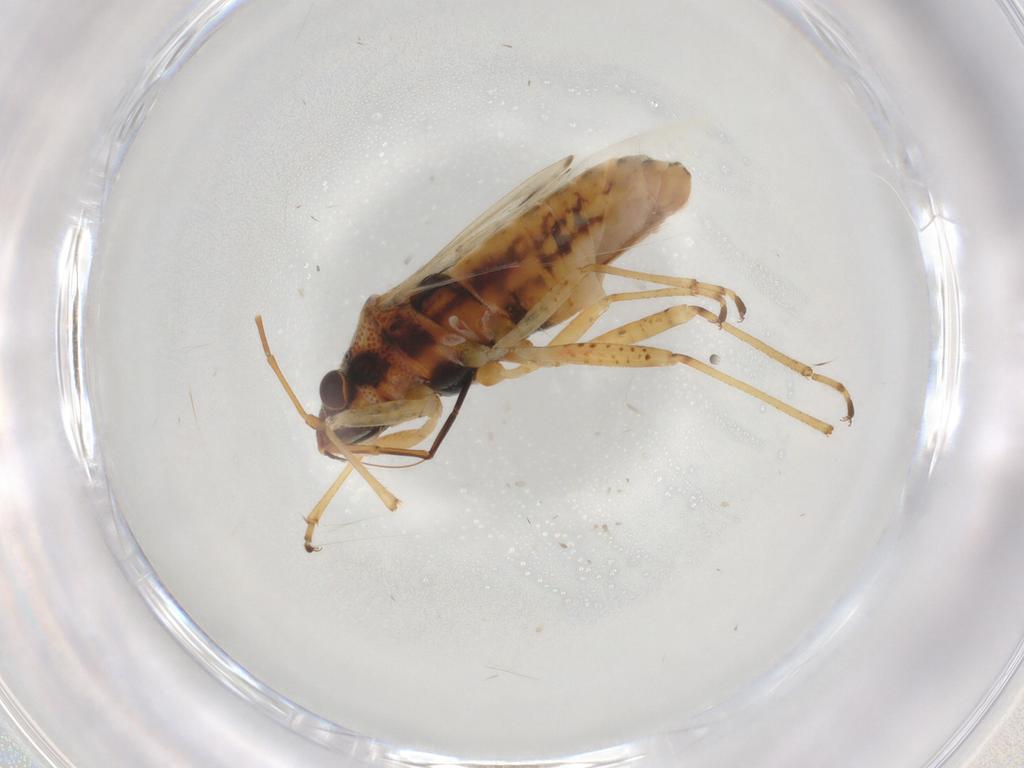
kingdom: Animalia
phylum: Arthropoda
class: Insecta
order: Hemiptera
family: Lygaeidae
